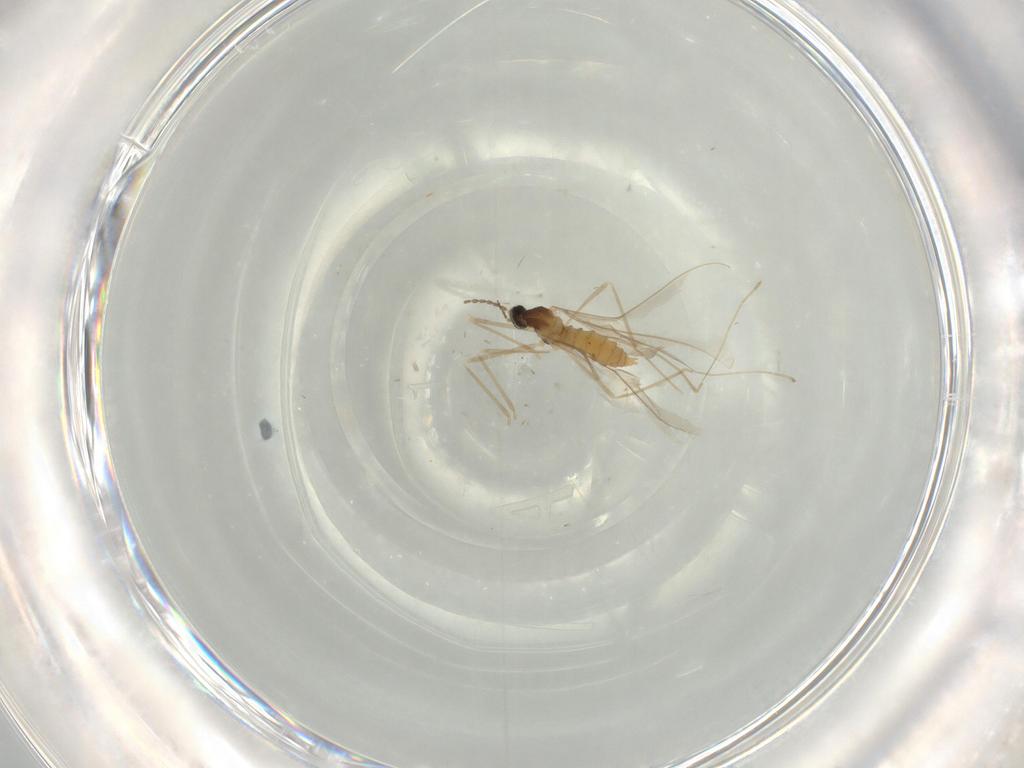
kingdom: Animalia
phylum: Arthropoda
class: Insecta
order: Diptera
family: Cecidomyiidae
